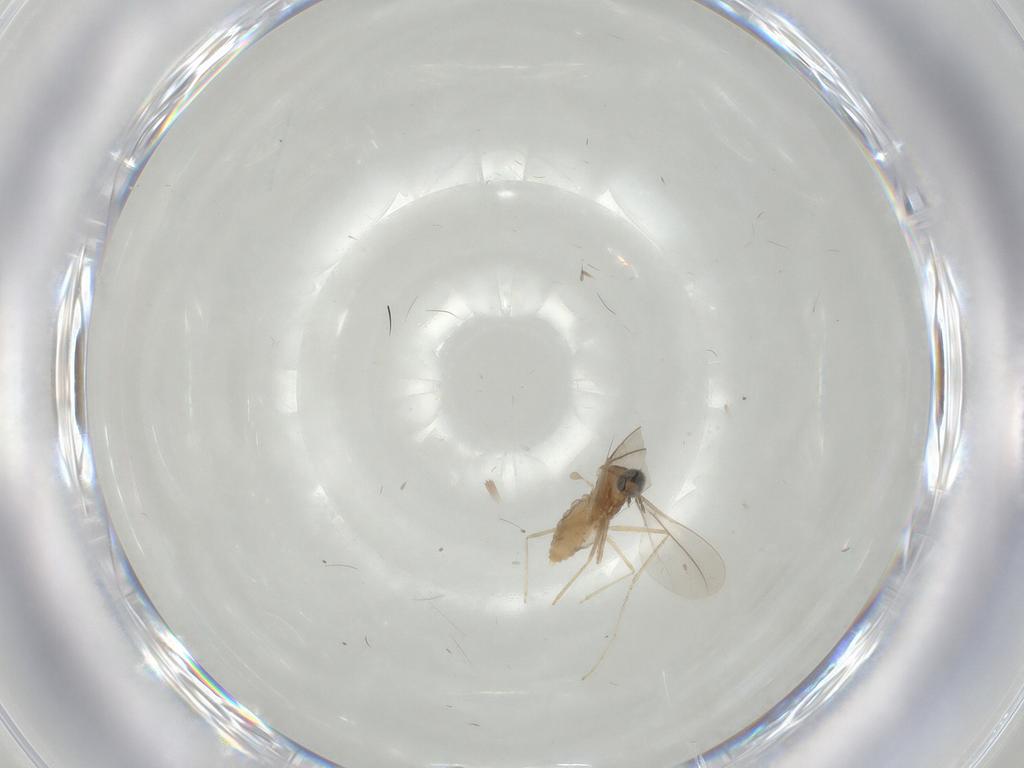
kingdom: Animalia
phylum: Arthropoda
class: Insecta
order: Diptera
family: Cecidomyiidae
